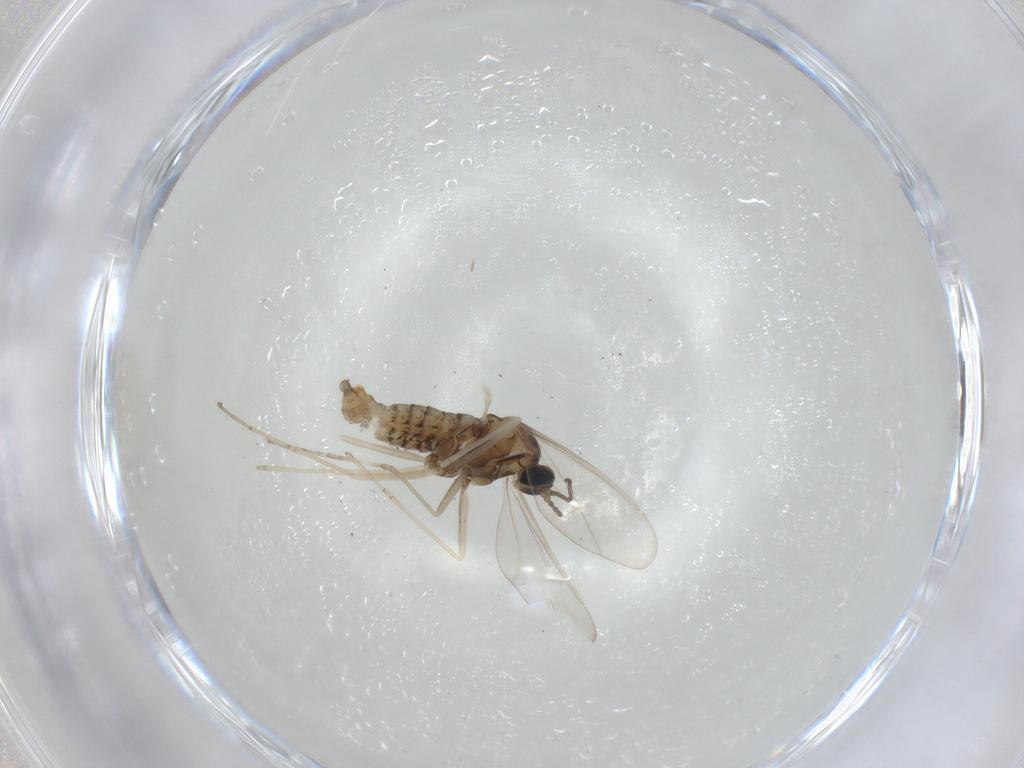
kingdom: Animalia
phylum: Arthropoda
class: Insecta
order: Diptera
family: Cecidomyiidae
